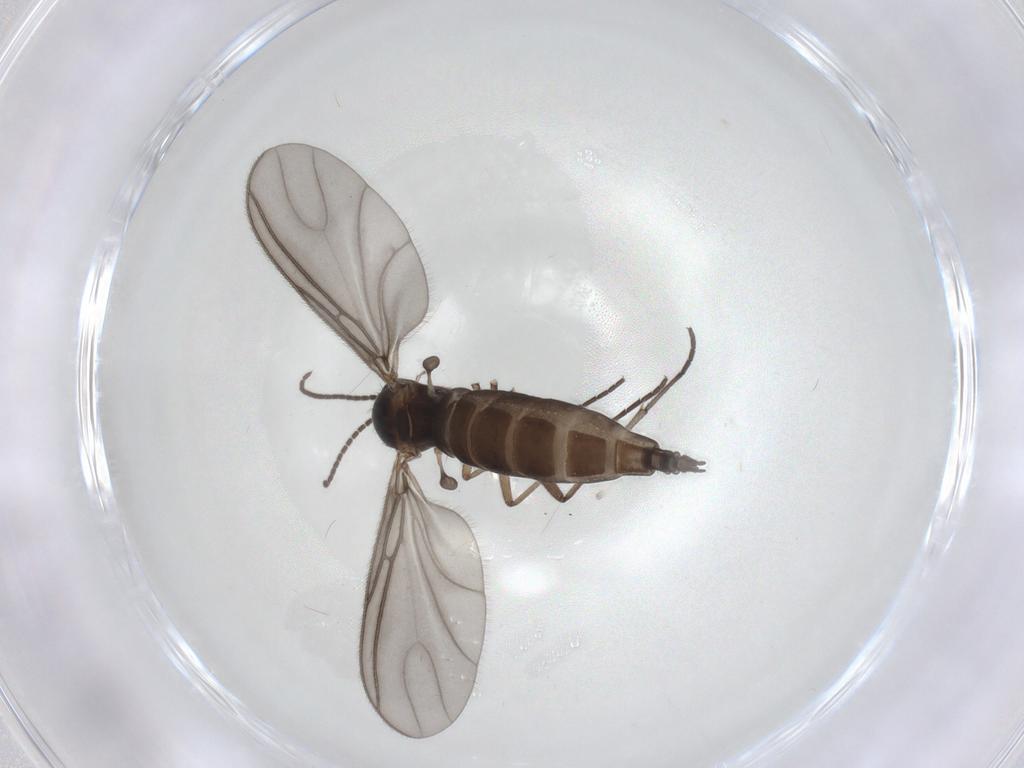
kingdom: Animalia
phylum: Arthropoda
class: Insecta
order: Diptera
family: Sciaridae
